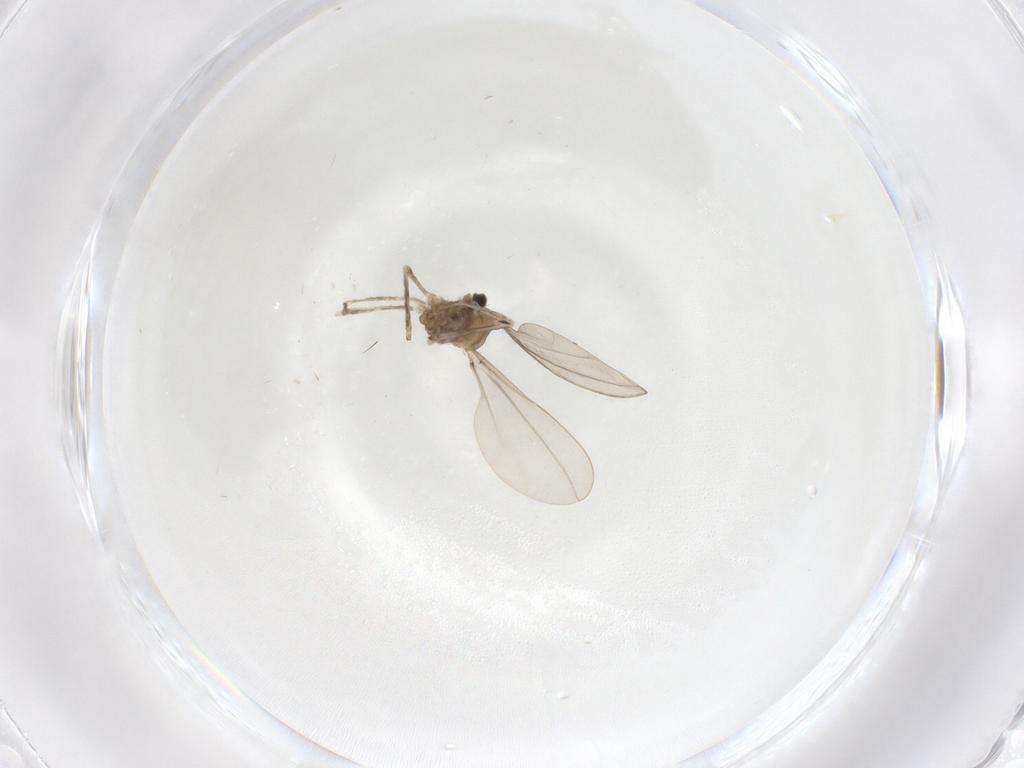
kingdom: Animalia
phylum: Arthropoda
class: Insecta
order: Diptera
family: Cecidomyiidae
